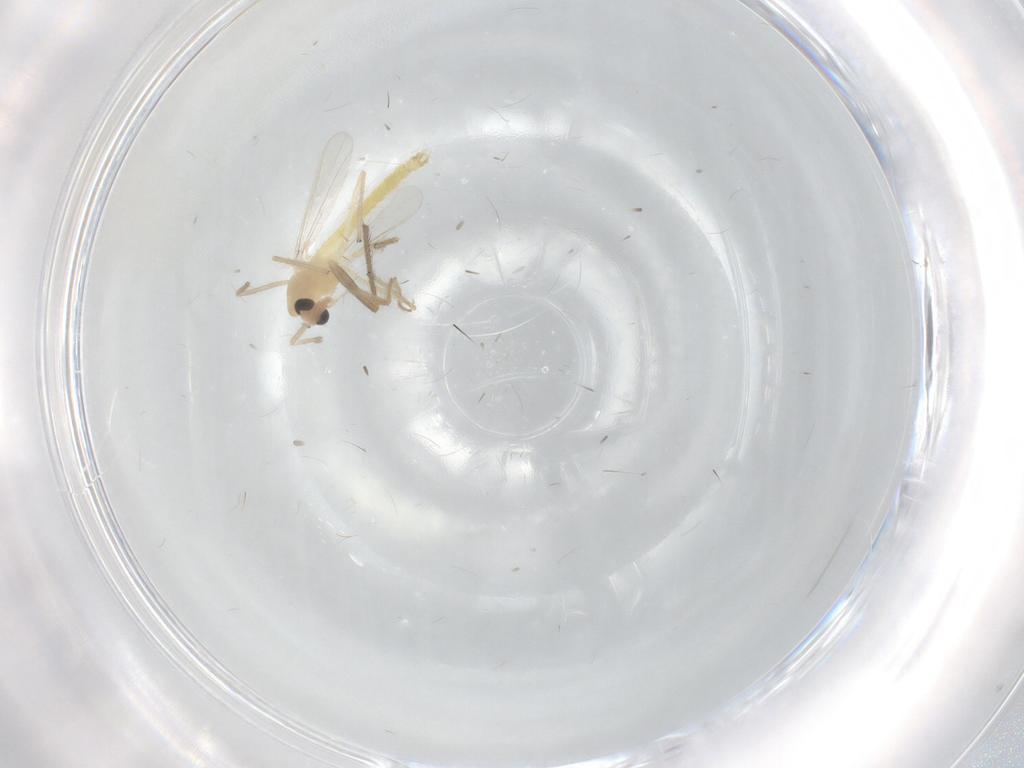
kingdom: Animalia
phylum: Arthropoda
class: Insecta
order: Diptera
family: Chironomidae
